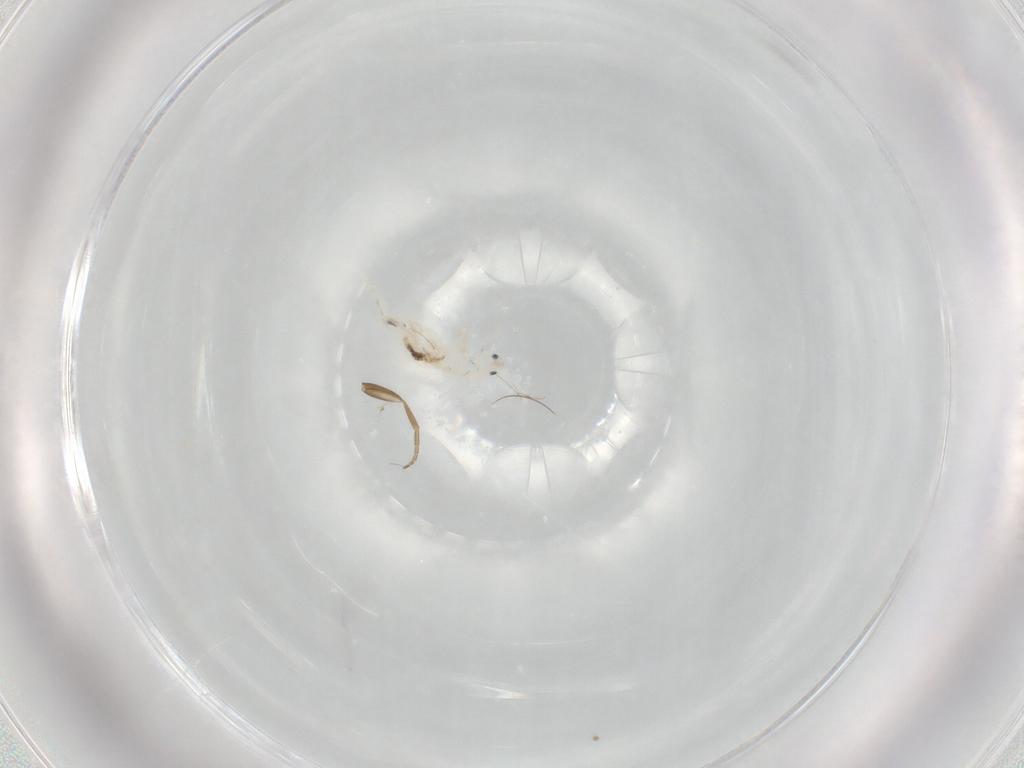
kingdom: Animalia
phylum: Arthropoda
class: Collembola
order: Entomobryomorpha
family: Entomobryidae
